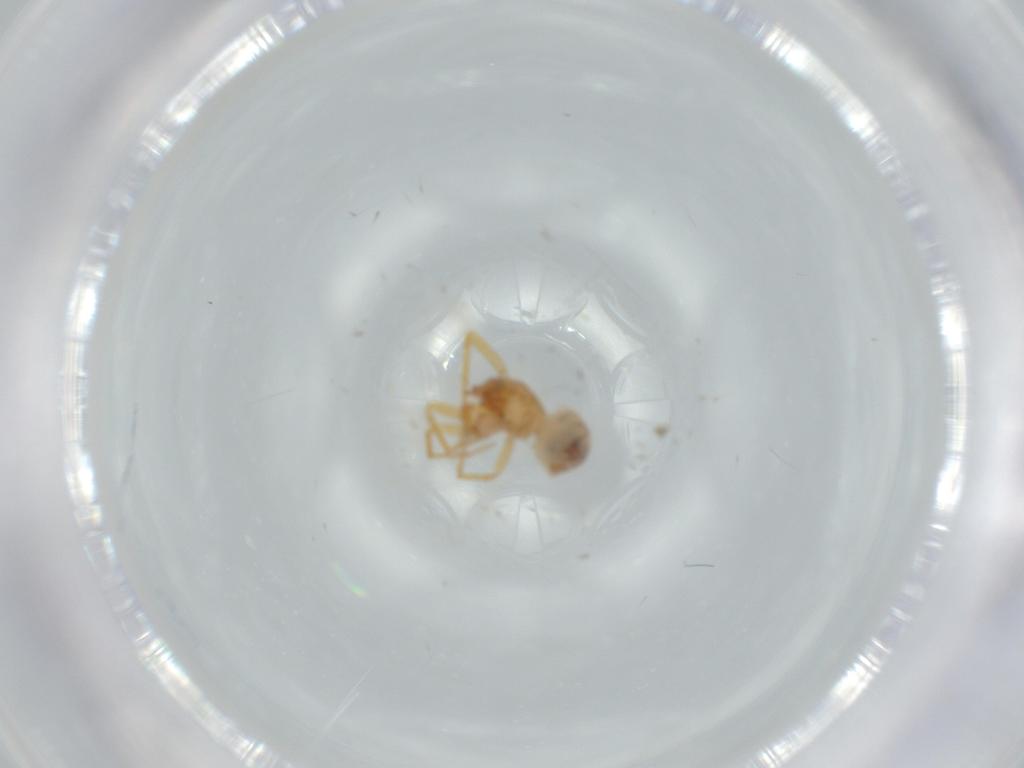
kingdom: Animalia
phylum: Arthropoda
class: Arachnida
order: Araneae
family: Oonopidae
